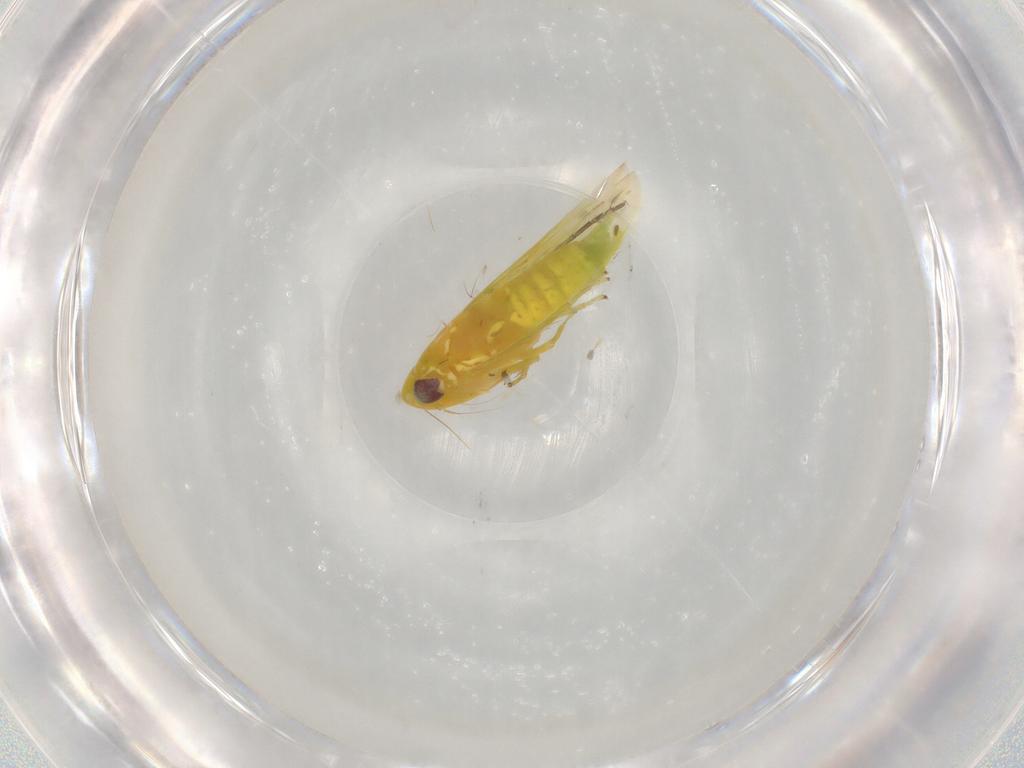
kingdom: Animalia
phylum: Arthropoda
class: Insecta
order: Hemiptera
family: Cicadellidae
